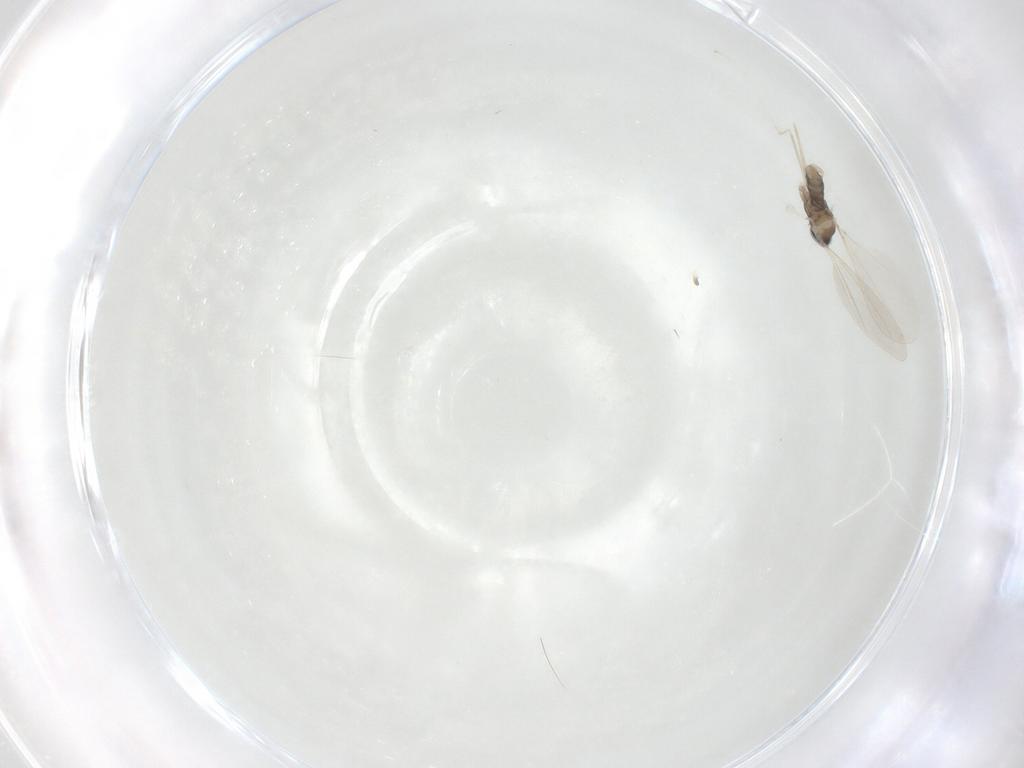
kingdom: Animalia
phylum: Arthropoda
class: Insecta
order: Diptera
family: Cecidomyiidae
